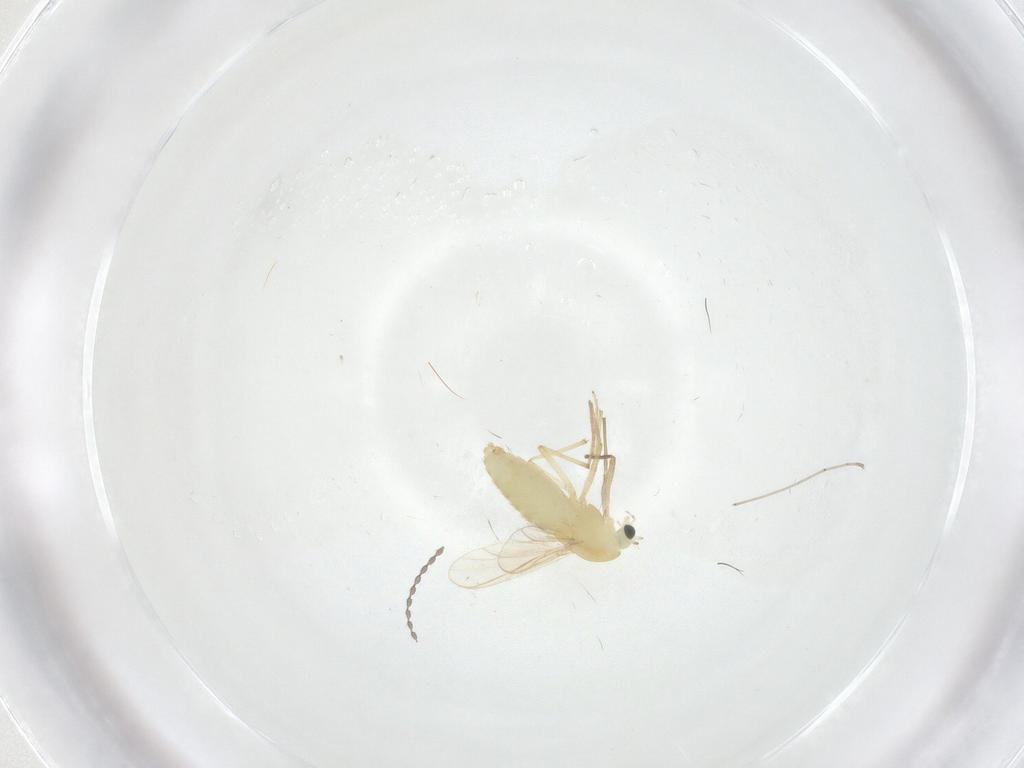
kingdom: Animalia
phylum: Arthropoda
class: Insecta
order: Diptera
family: Chironomidae
